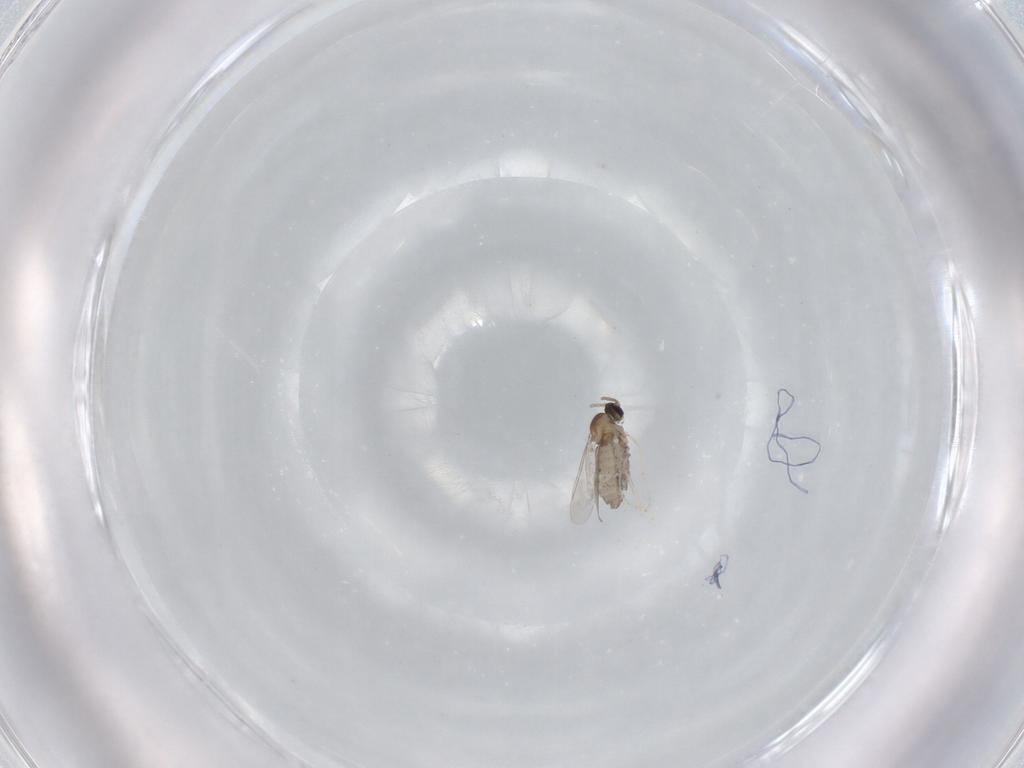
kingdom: Animalia
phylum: Arthropoda
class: Insecta
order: Diptera
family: Cecidomyiidae
